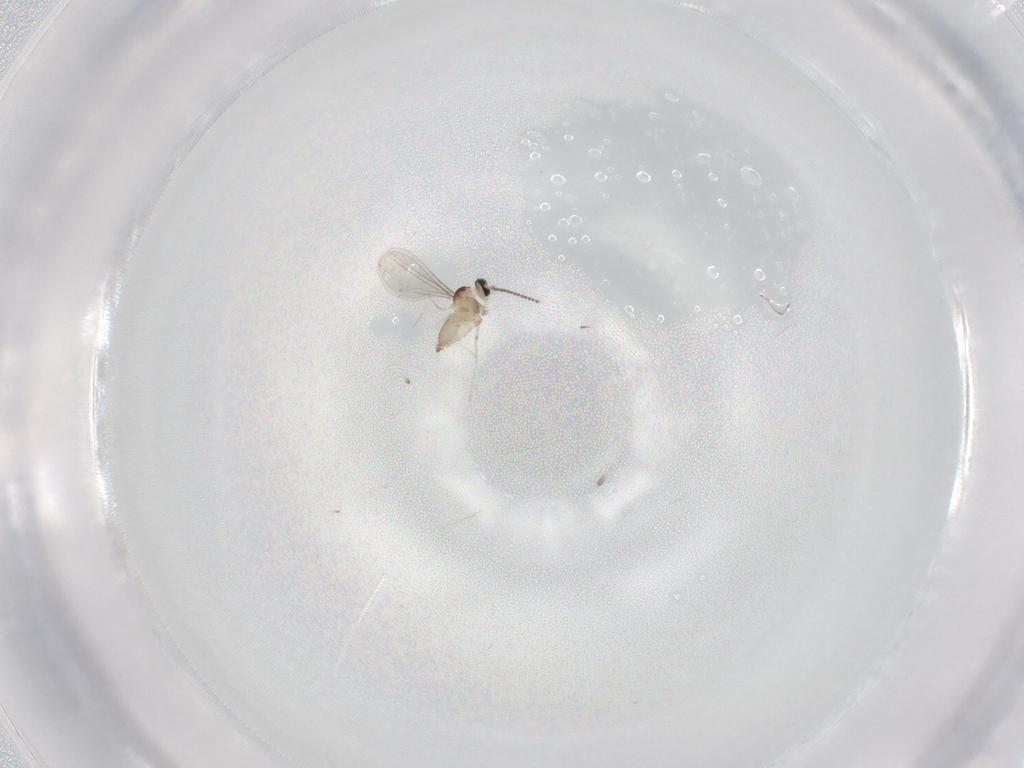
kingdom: Animalia
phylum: Arthropoda
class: Insecta
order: Diptera
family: Cecidomyiidae
